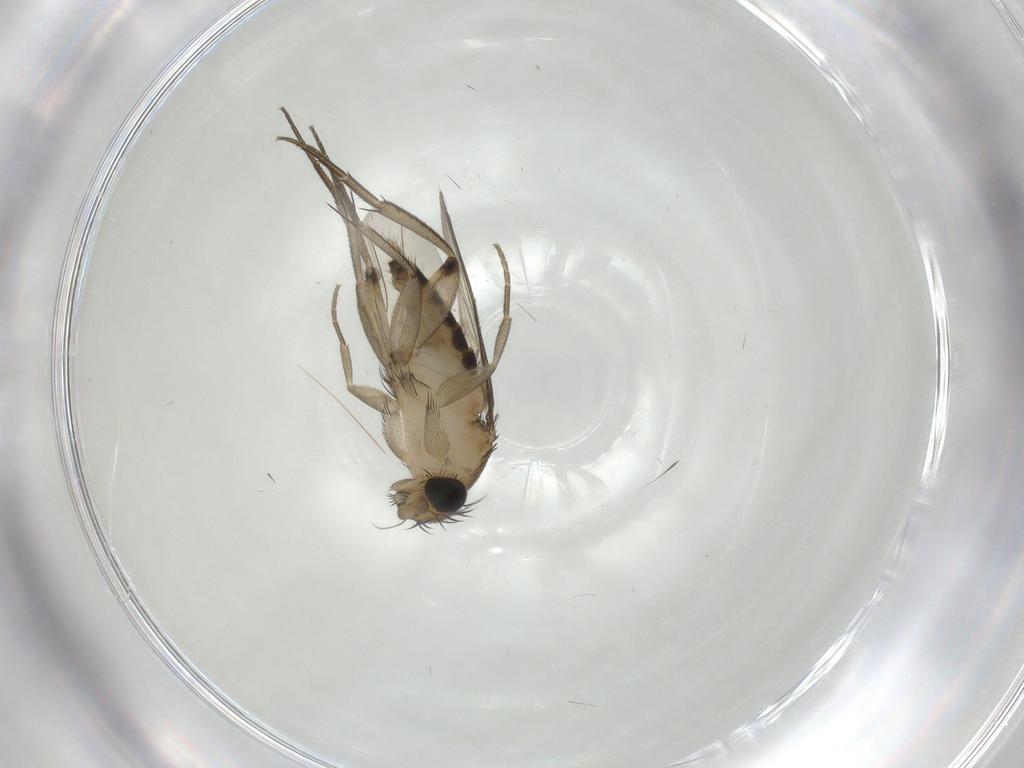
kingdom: Animalia
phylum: Arthropoda
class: Insecta
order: Diptera
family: Phoridae
